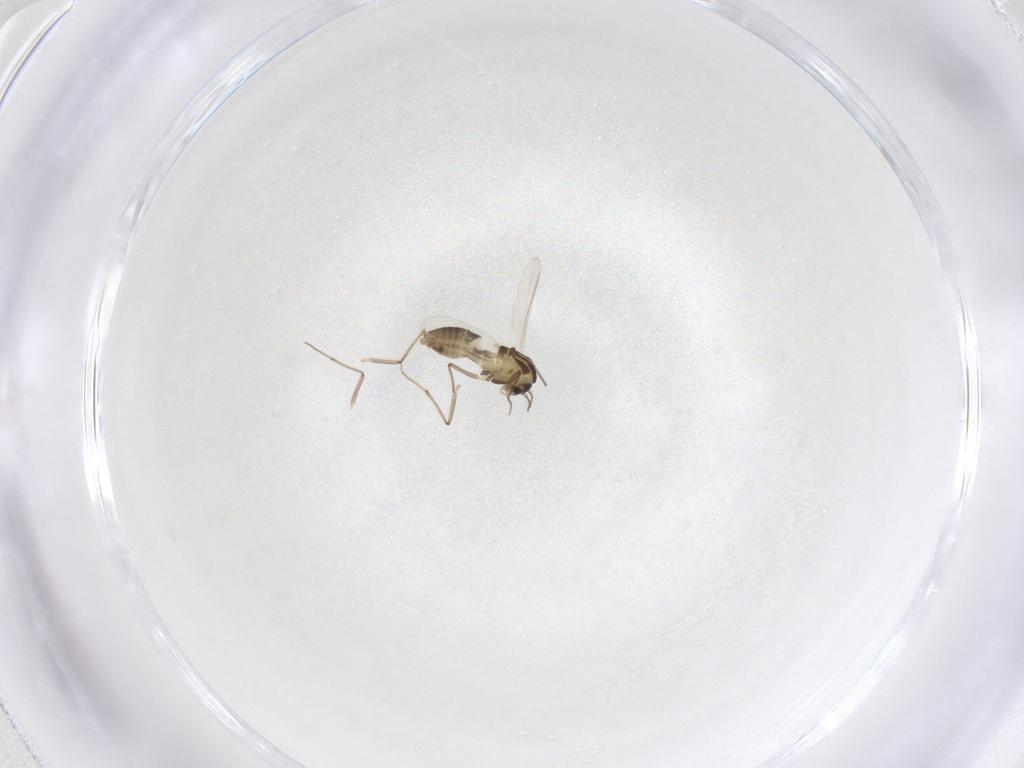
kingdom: Animalia
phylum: Arthropoda
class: Insecta
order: Diptera
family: Chironomidae
